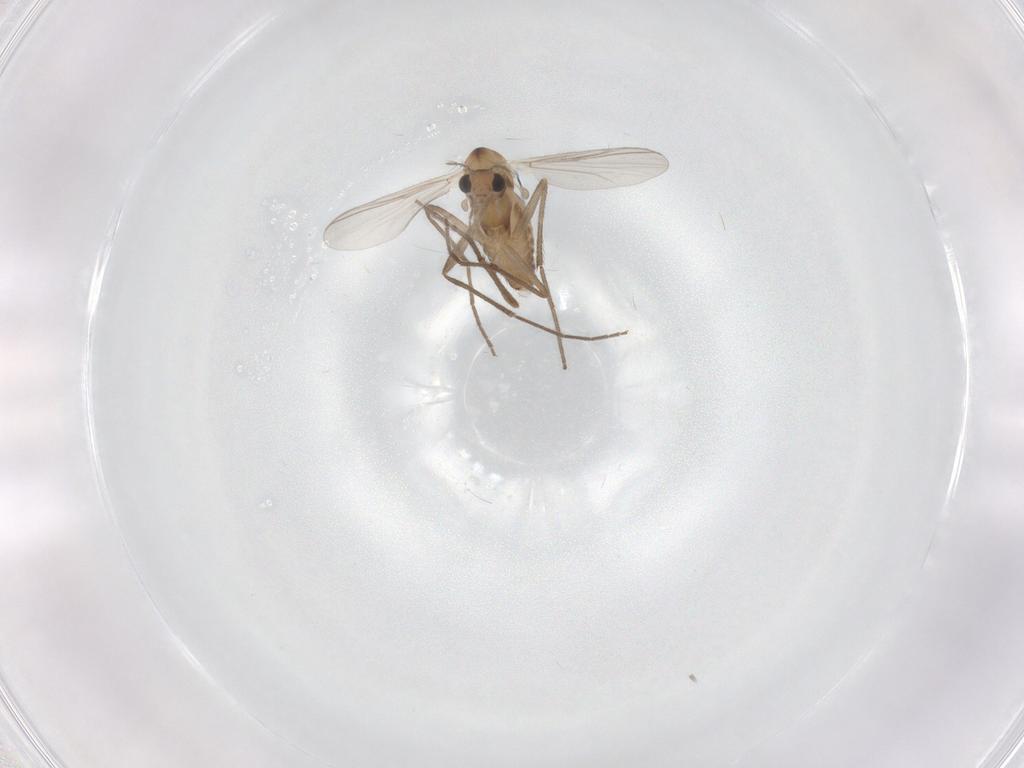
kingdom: Animalia
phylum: Arthropoda
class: Insecta
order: Diptera
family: Chironomidae
